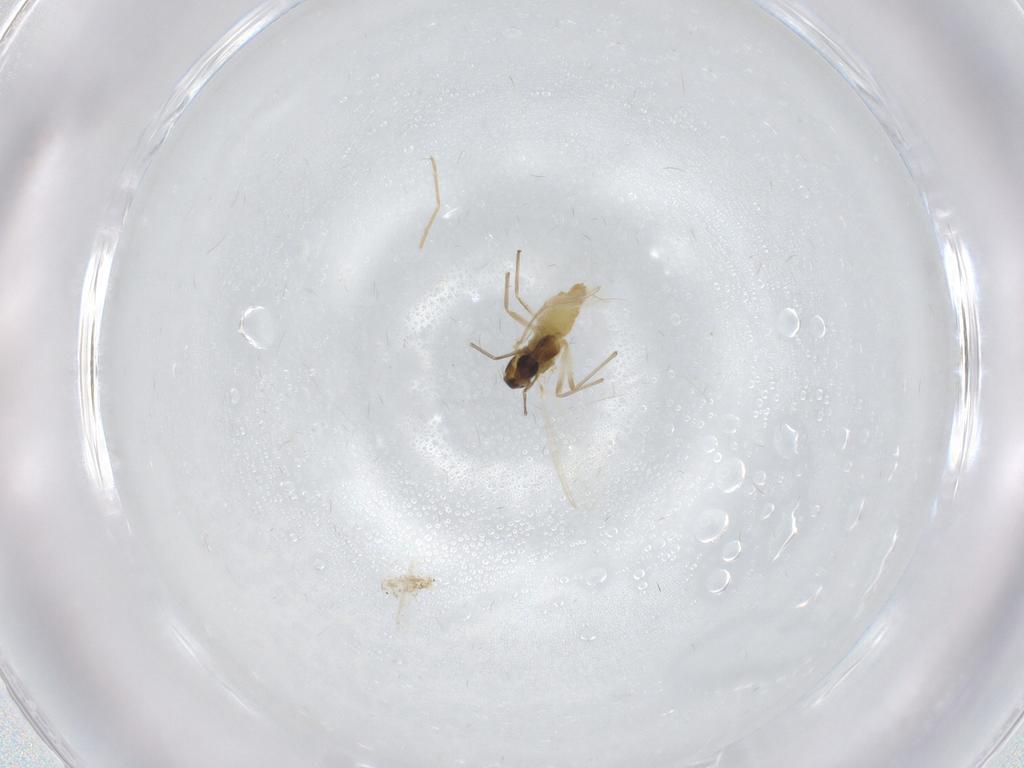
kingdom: Animalia
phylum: Arthropoda
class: Insecta
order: Diptera
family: Chironomidae
